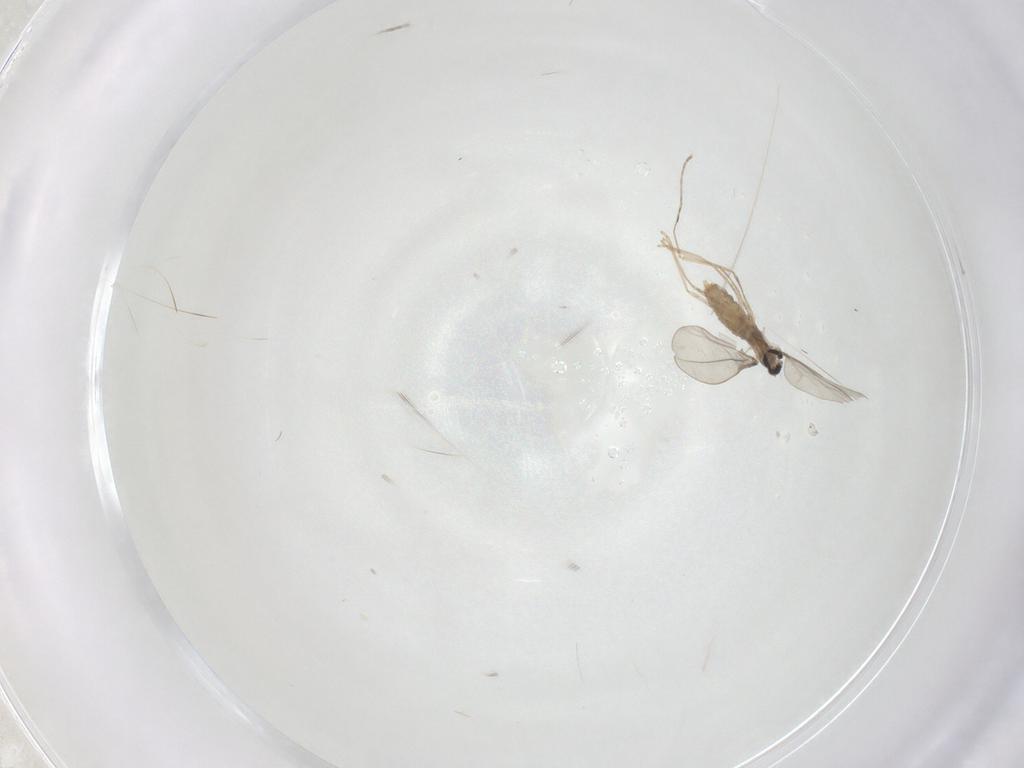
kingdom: Animalia
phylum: Arthropoda
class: Insecta
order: Diptera
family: Cecidomyiidae
